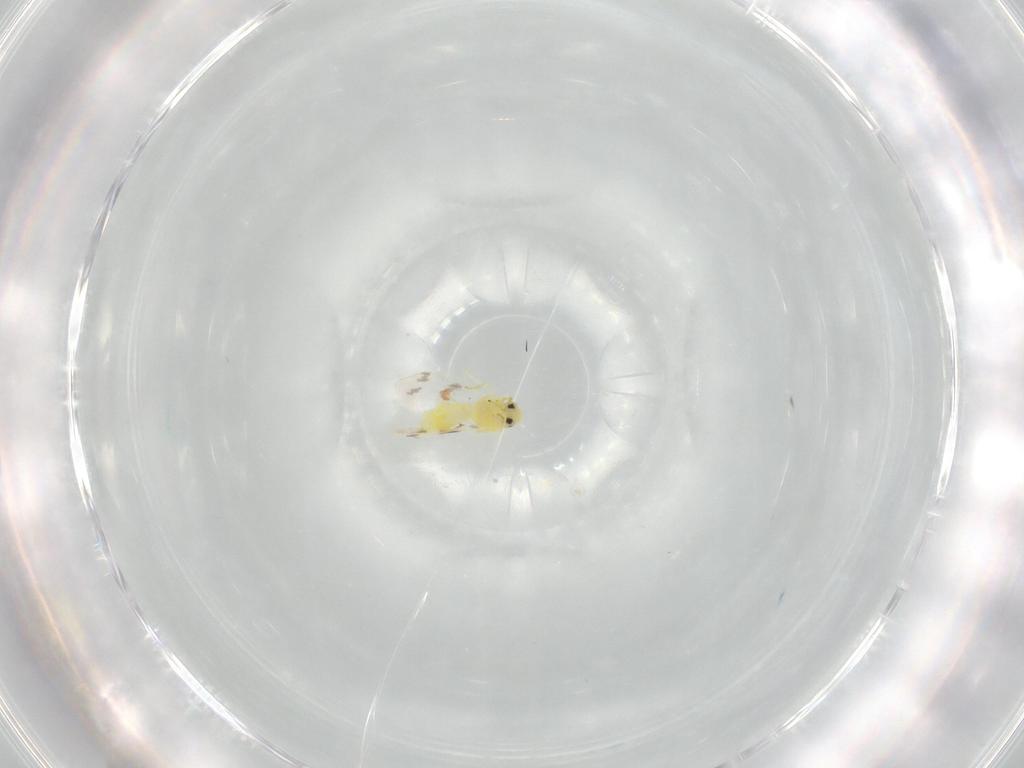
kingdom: Animalia
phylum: Arthropoda
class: Insecta
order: Hemiptera
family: Aleyrodidae
